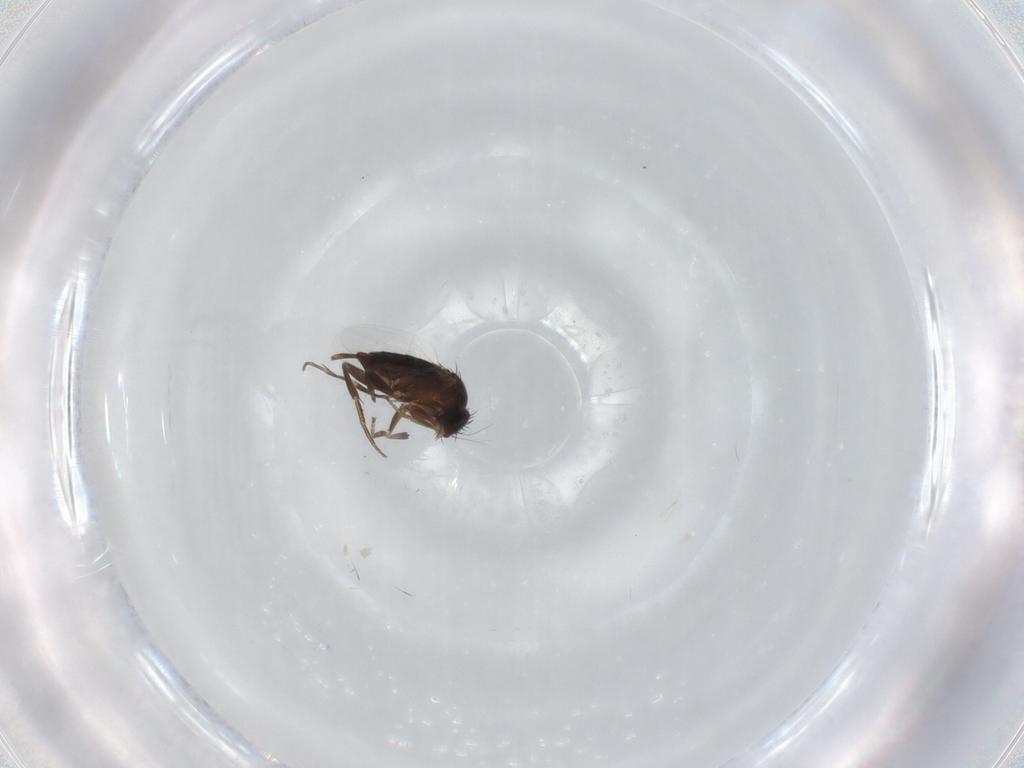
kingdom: Animalia
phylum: Arthropoda
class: Insecta
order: Diptera
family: Phoridae
